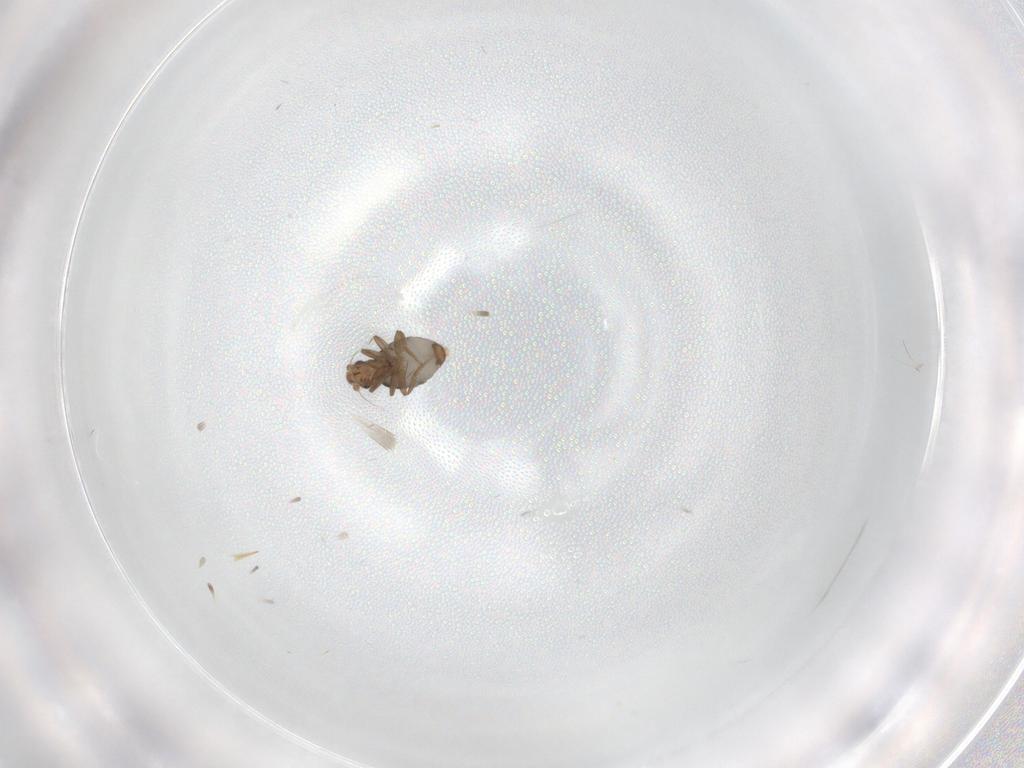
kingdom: Animalia
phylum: Arthropoda
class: Insecta
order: Diptera
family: Phoridae
